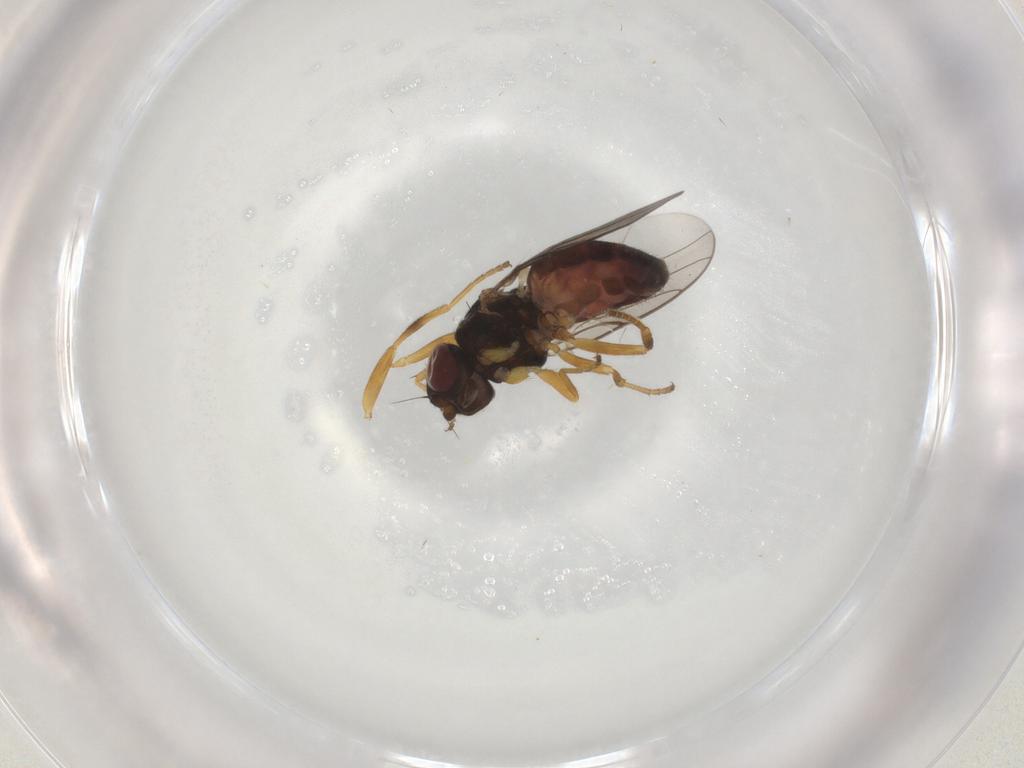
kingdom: Animalia
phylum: Arthropoda
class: Insecta
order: Diptera
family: Chloropidae
